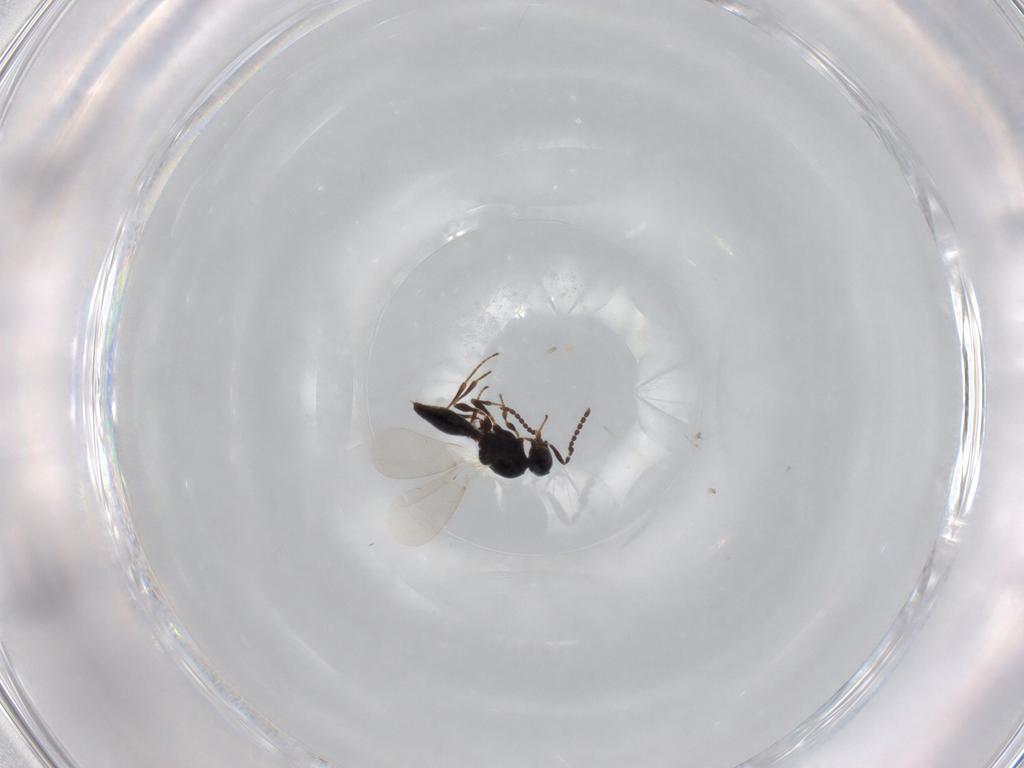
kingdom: Animalia
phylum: Arthropoda
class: Insecta
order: Hymenoptera
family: Platygastridae
